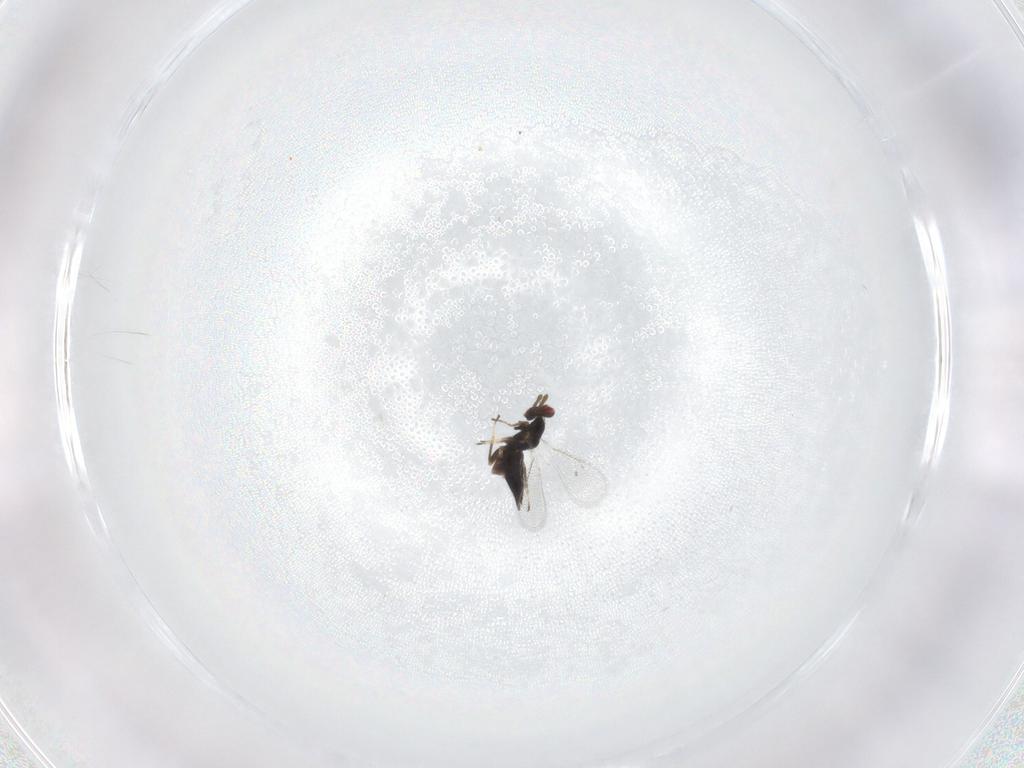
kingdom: Animalia
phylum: Arthropoda
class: Insecta
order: Hymenoptera
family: Eulophidae
